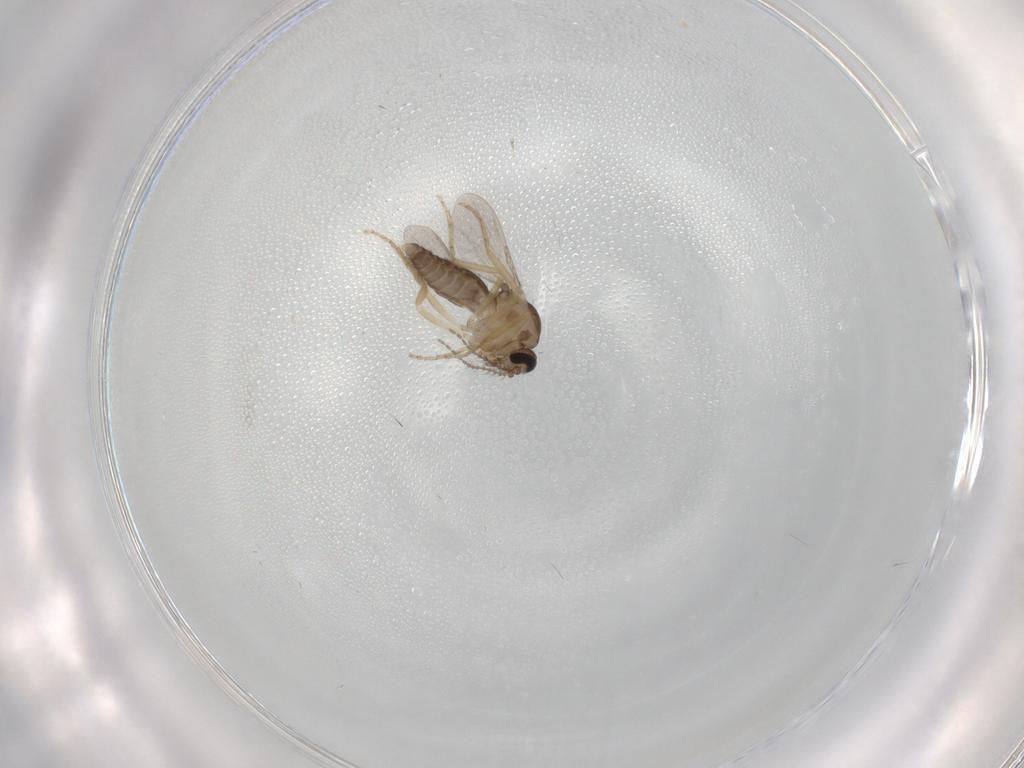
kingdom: Animalia
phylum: Arthropoda
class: Insecta
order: Diptera
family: Ceratopogonidae
